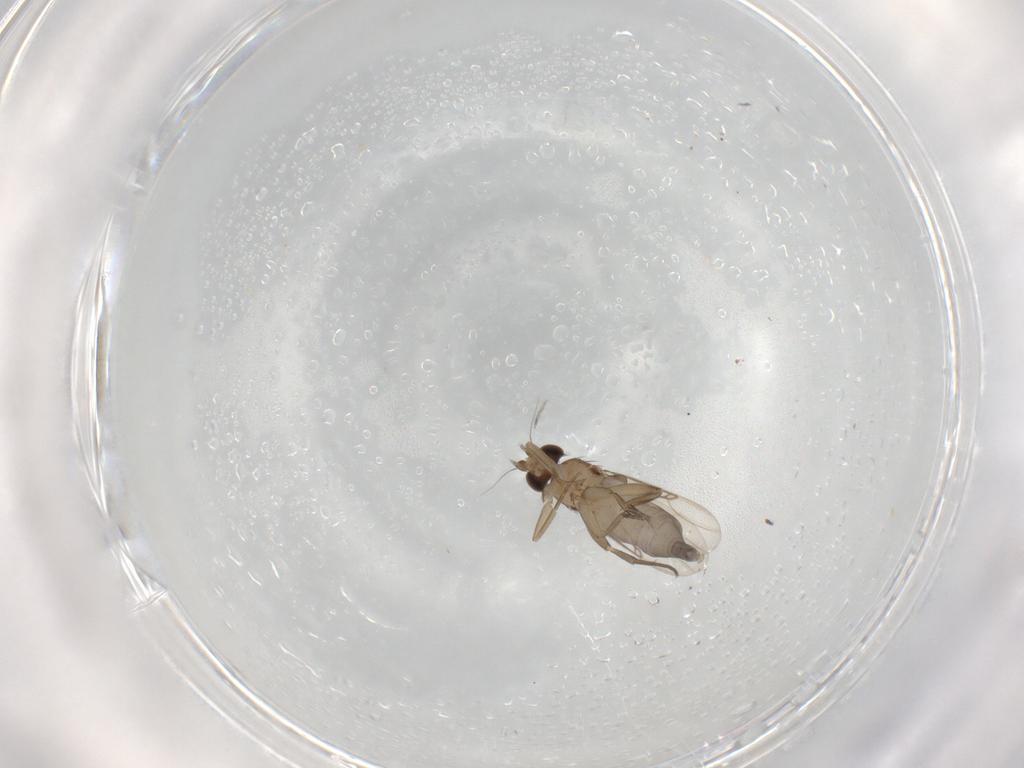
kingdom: Animalia
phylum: Arthropoda
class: Insecta
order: Diptera
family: Phoridae
